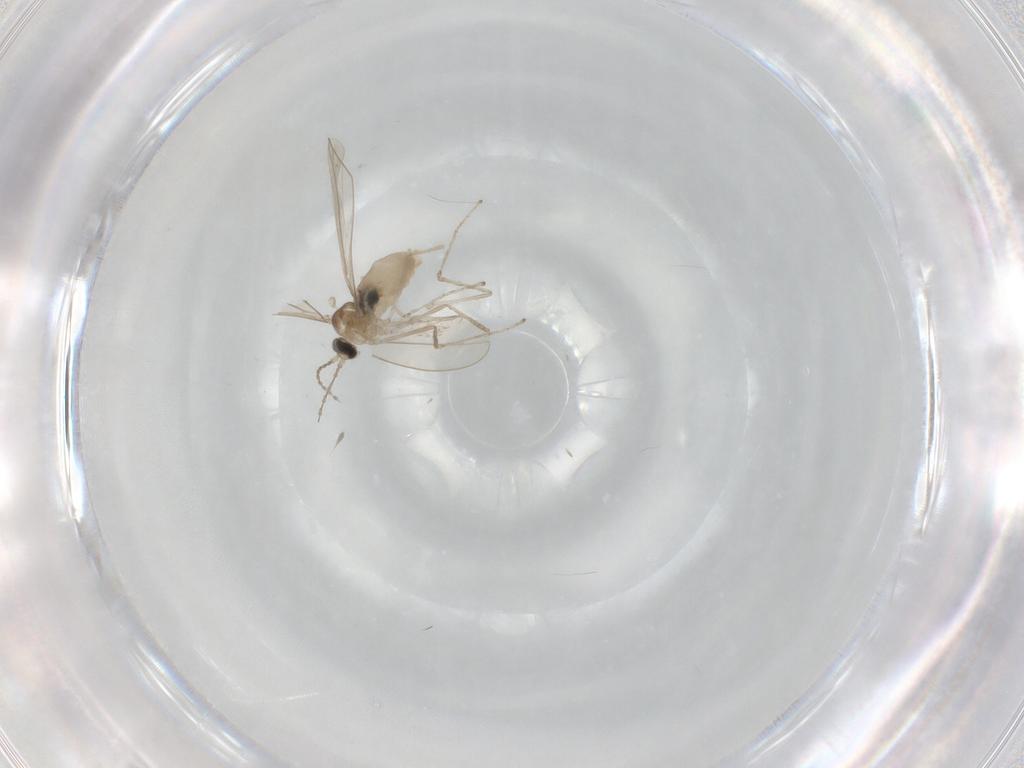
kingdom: Animalia
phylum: Arthropoda
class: Insecta
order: Diptera
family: Cecidomyiidae
